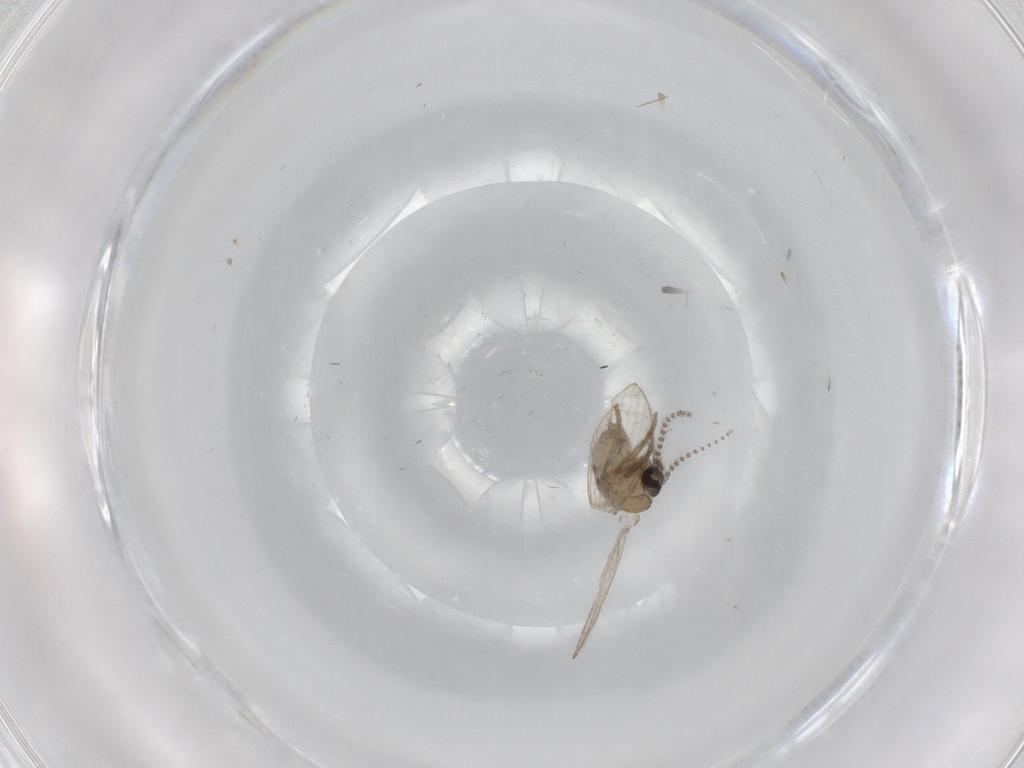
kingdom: Animalia
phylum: Arthropoda
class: Insecta
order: Diptera
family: Psychodidae
